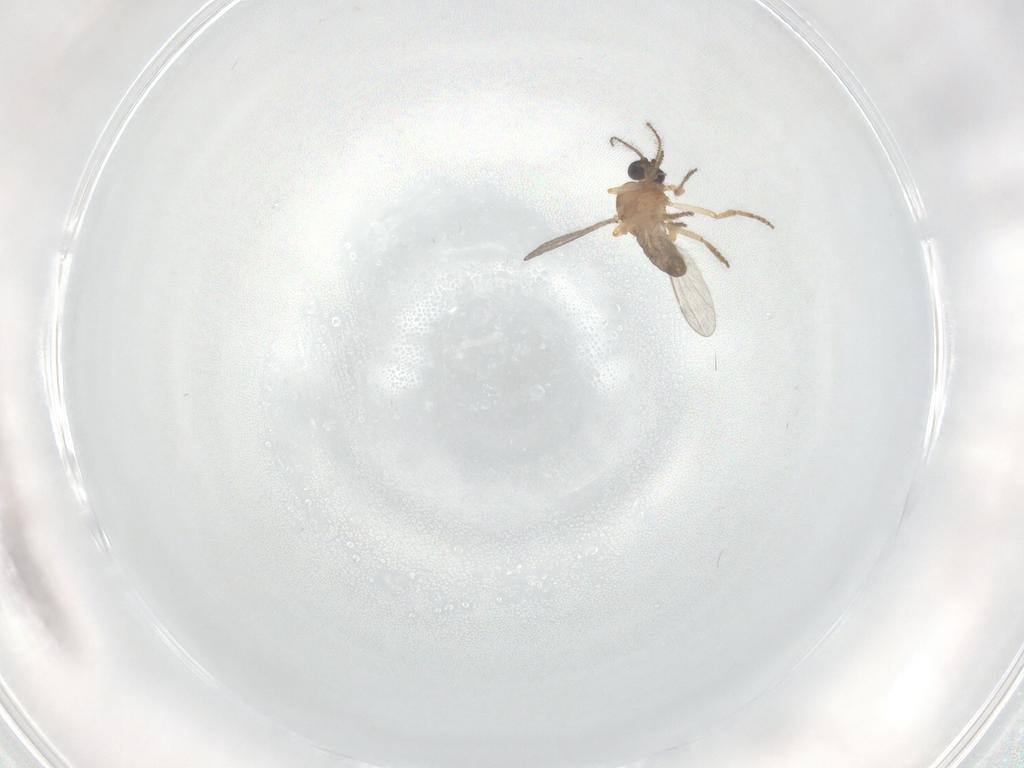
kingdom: Animalia
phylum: Arthropoda
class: Insecta
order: Diptera
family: Ceratopogonidae
